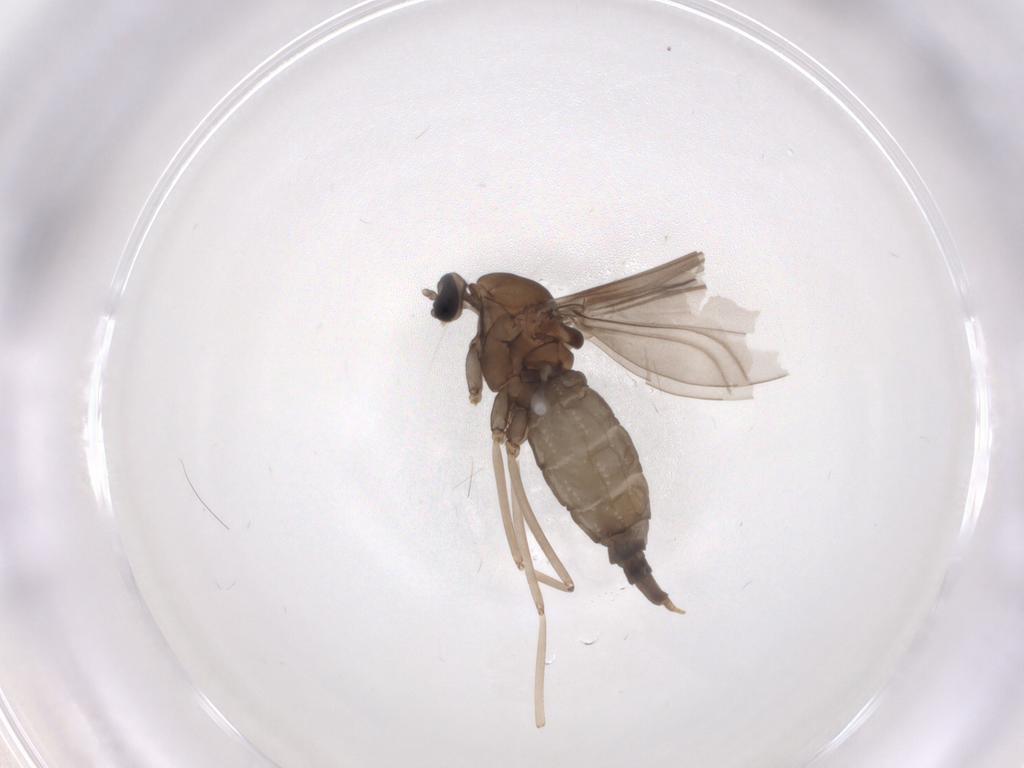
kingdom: Animalia
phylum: Arthropoda
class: Insecta
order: Diptera
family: Cecidomyiidae
